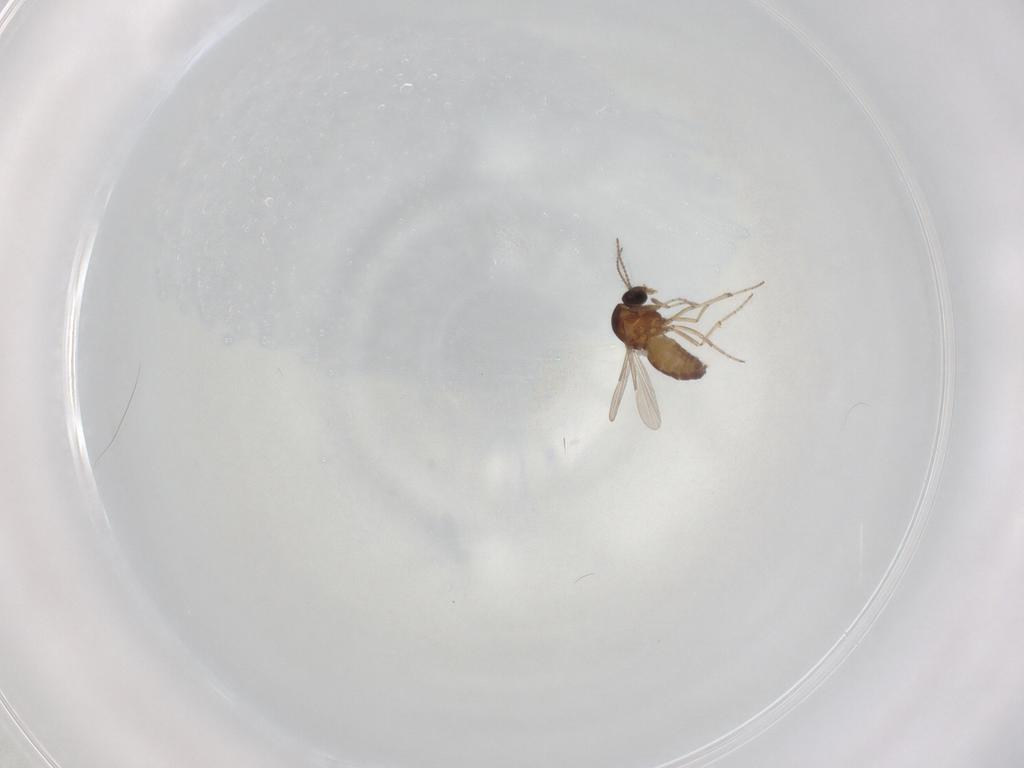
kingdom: Animalia
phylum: Arthropoda
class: Insecta
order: Diptera
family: Ceratopogonidae
